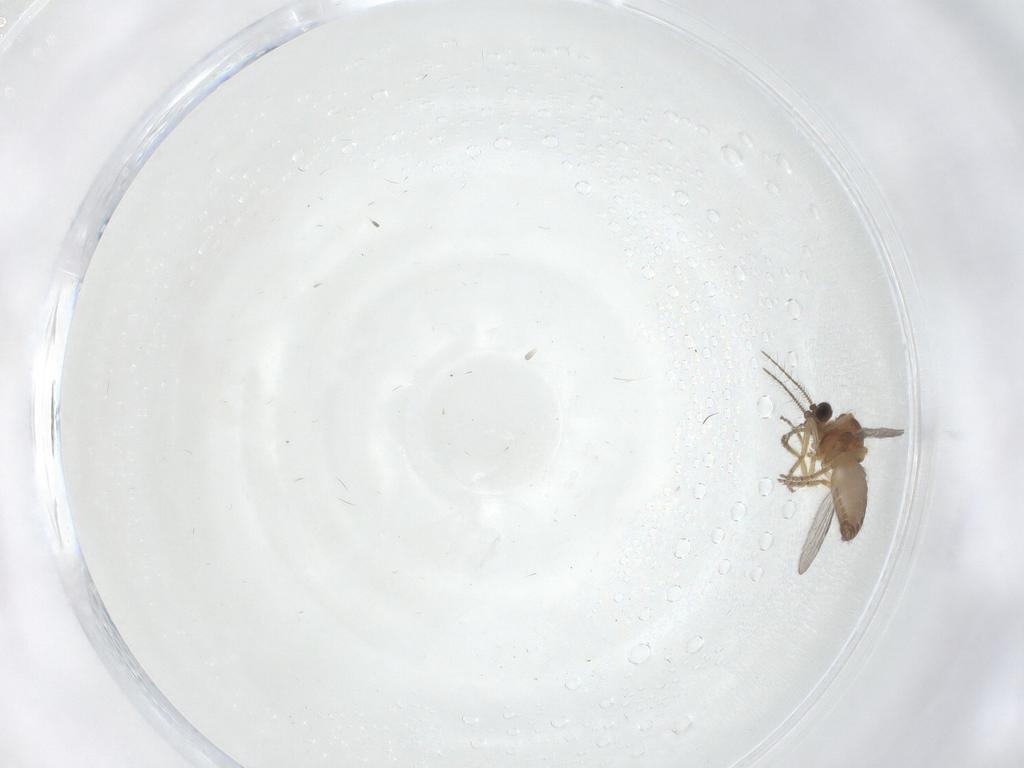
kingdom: Animalia
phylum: Arthropoda
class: Insecta
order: Diptera
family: Ceratopogonidae
